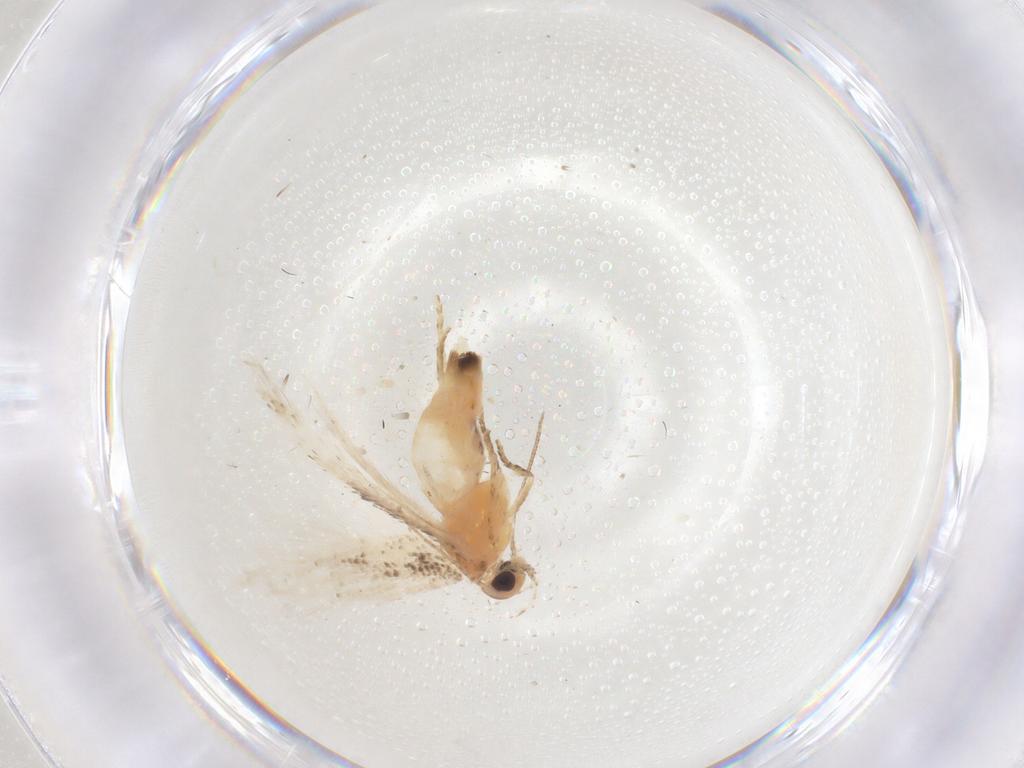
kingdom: Animalia
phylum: Arthropoda
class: Insecta
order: Lepidoptera
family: Gelechiidae
